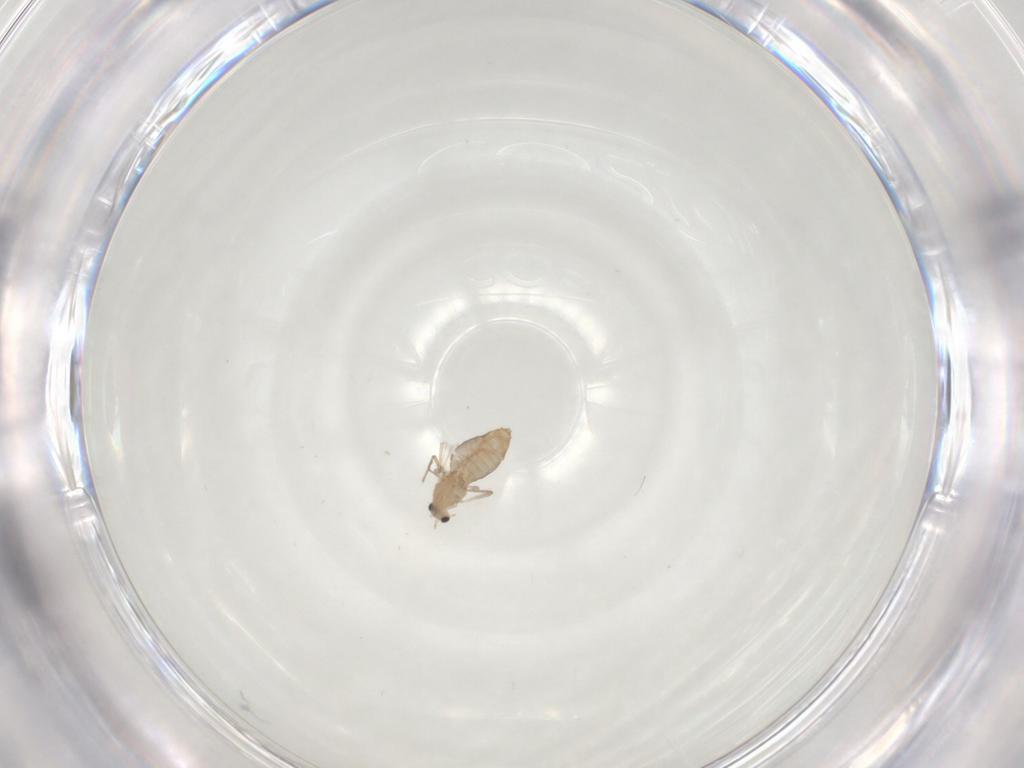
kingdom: Animalia
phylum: Arthropoda
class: Insecta
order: Diptera
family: Chironomidae
